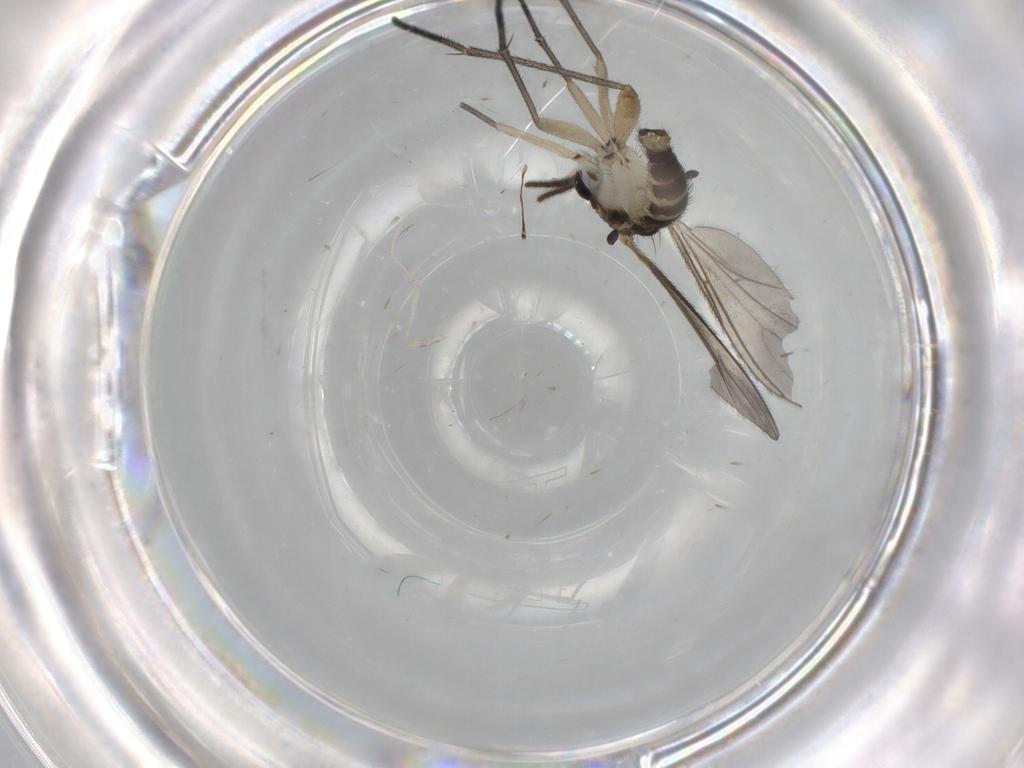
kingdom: Animalia
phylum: Arthropoda
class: Insecta
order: Diptera
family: Sciaridae
